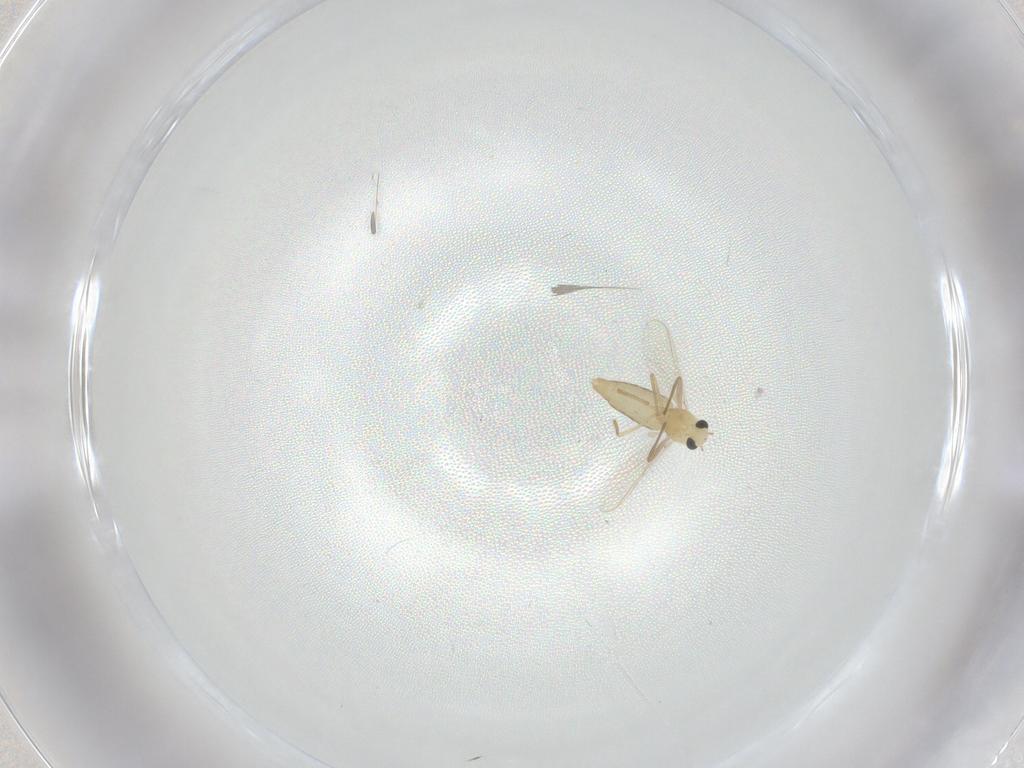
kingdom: Animalia
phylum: Arthropoda
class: Insecta
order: Diptera
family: Chironomidae
